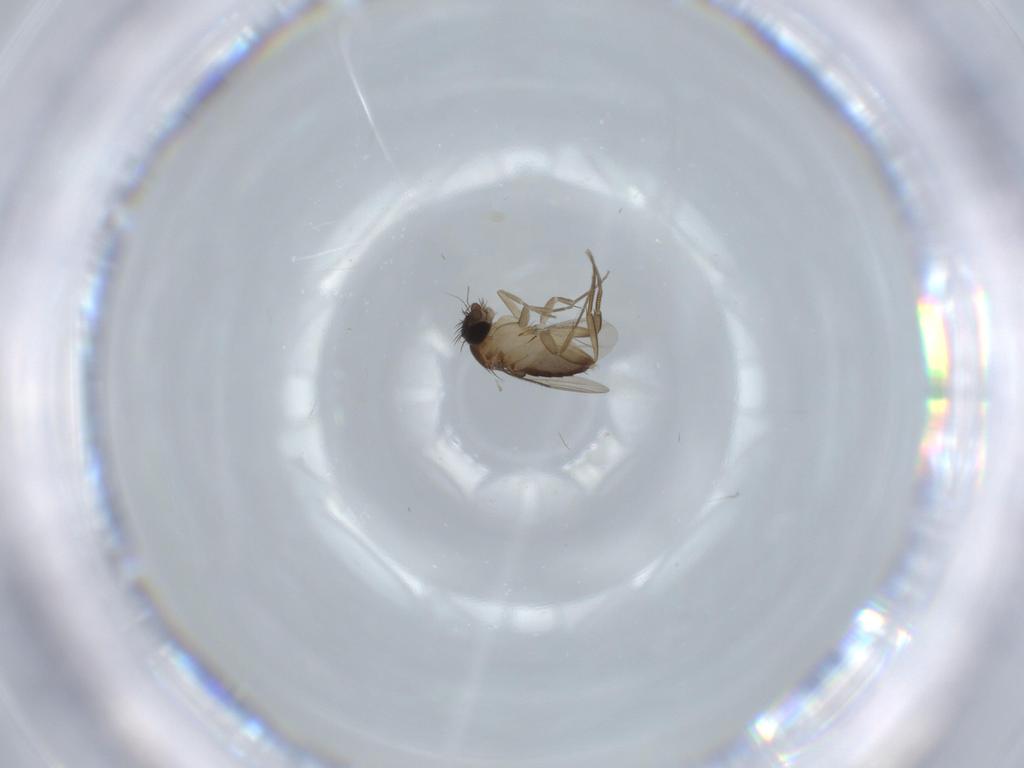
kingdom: Animalia
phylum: Arthropoda
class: Insecta
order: Diptera
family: Phoridae
